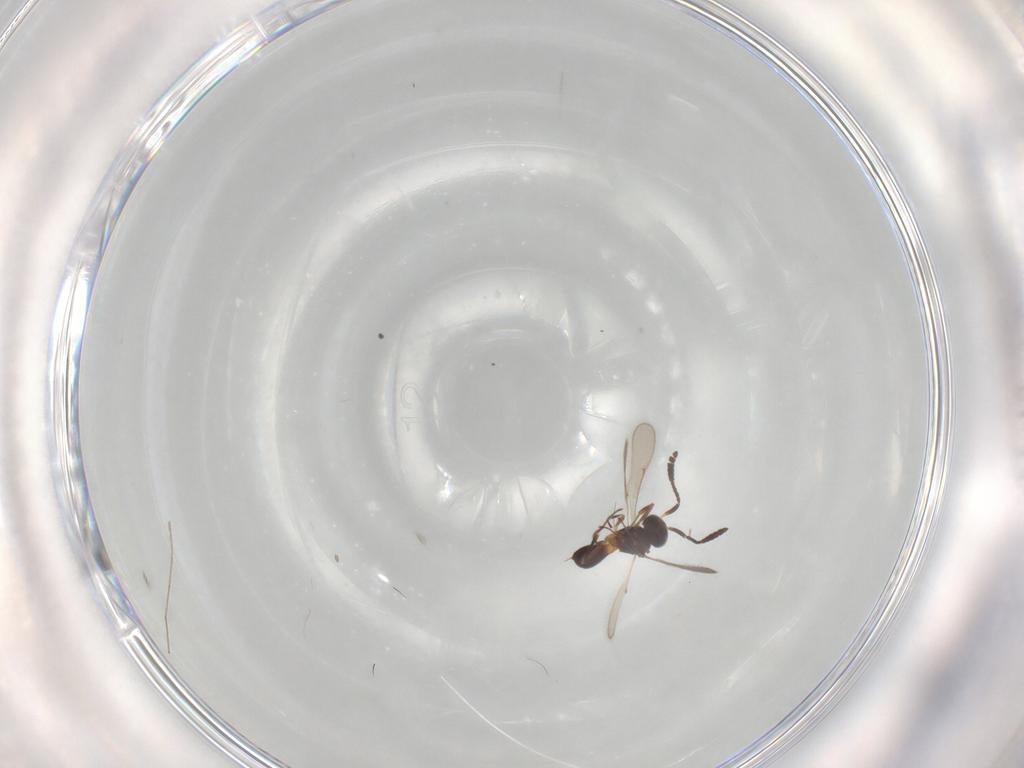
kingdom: Animalia
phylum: Arthropoda
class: Insecta
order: Hymenoptera
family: Scelionidae
